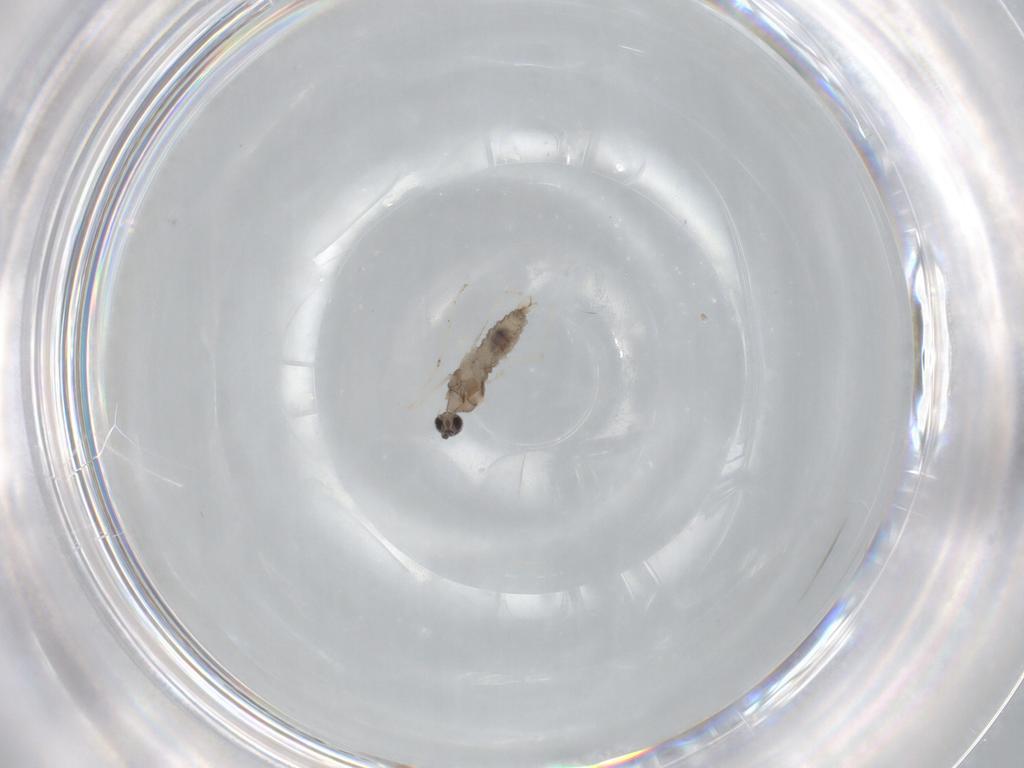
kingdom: Animalia
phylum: Arthropoda
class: Insecta
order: Diptera
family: Cecidomyiidae
